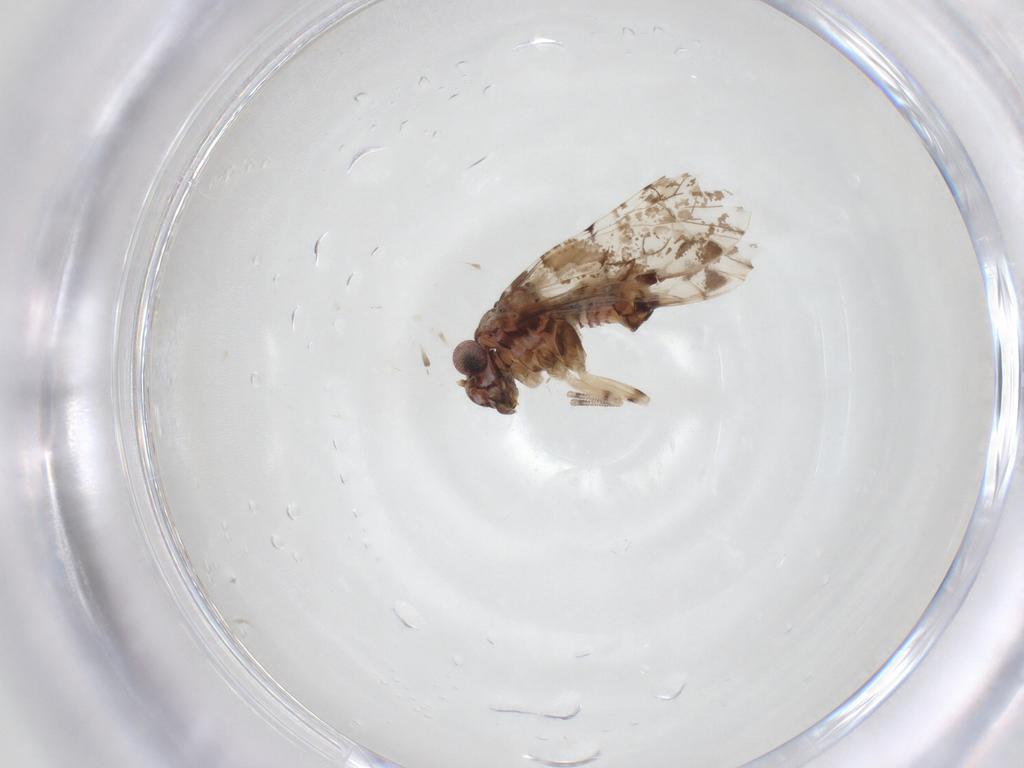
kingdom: Animalia
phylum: Arthropoda
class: Insecta
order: Psocodea
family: Psocidae
